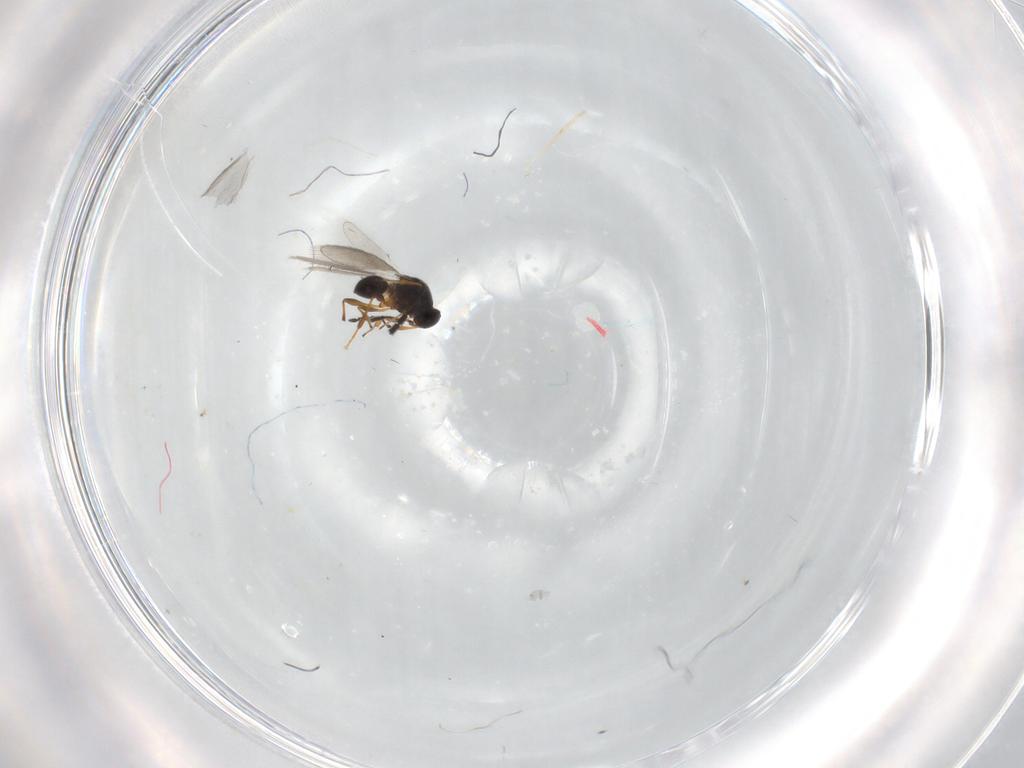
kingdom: Animalia
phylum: Arthropoda
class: Insecta
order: Hymenoptera
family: Platygastridae
